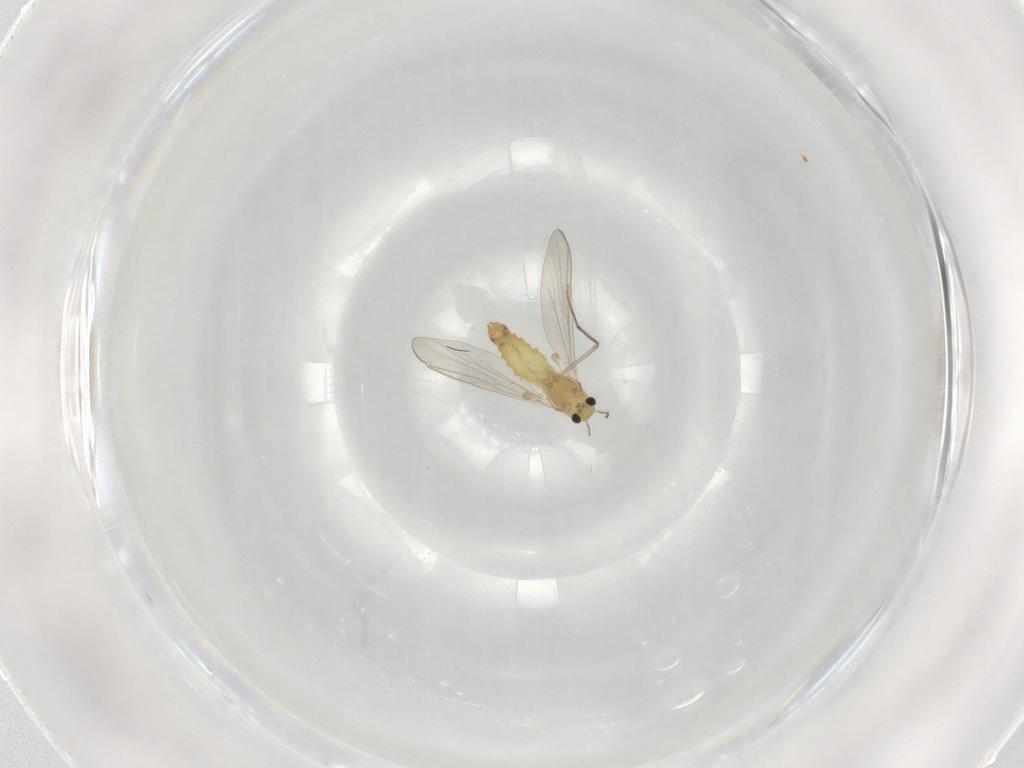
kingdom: Animalia
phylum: Arthropoda
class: Insecta
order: Diptera
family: Chironomidae
